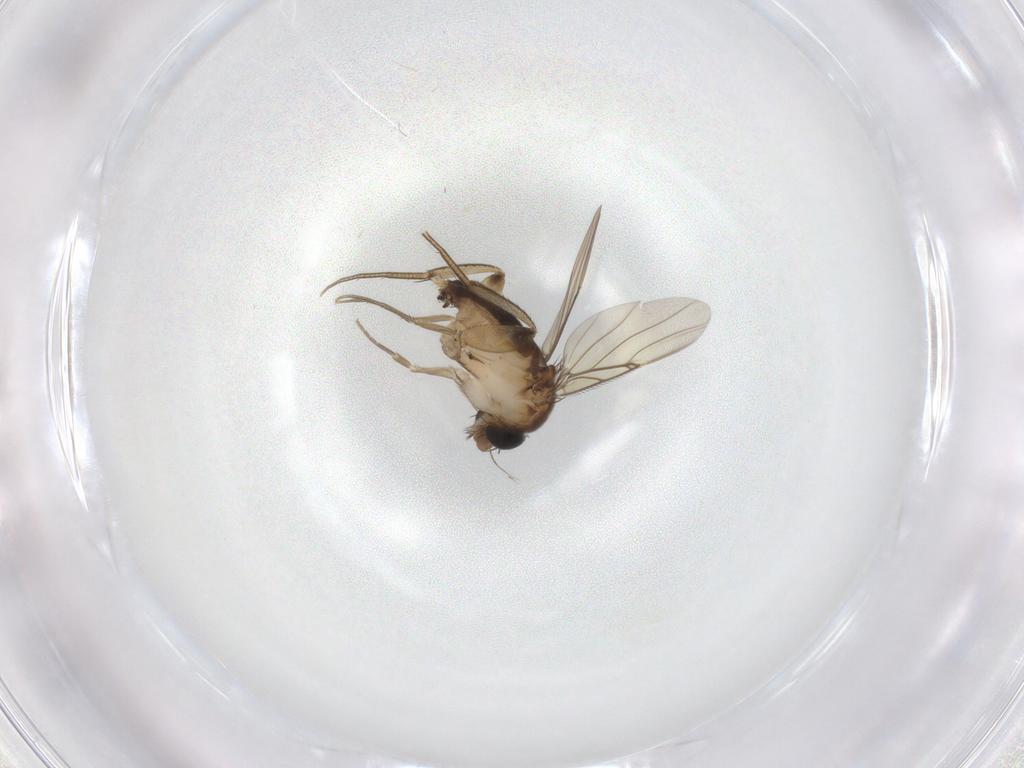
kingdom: Animalia
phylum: Arthropoda
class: Insecta
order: Diptera
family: Phoridae
